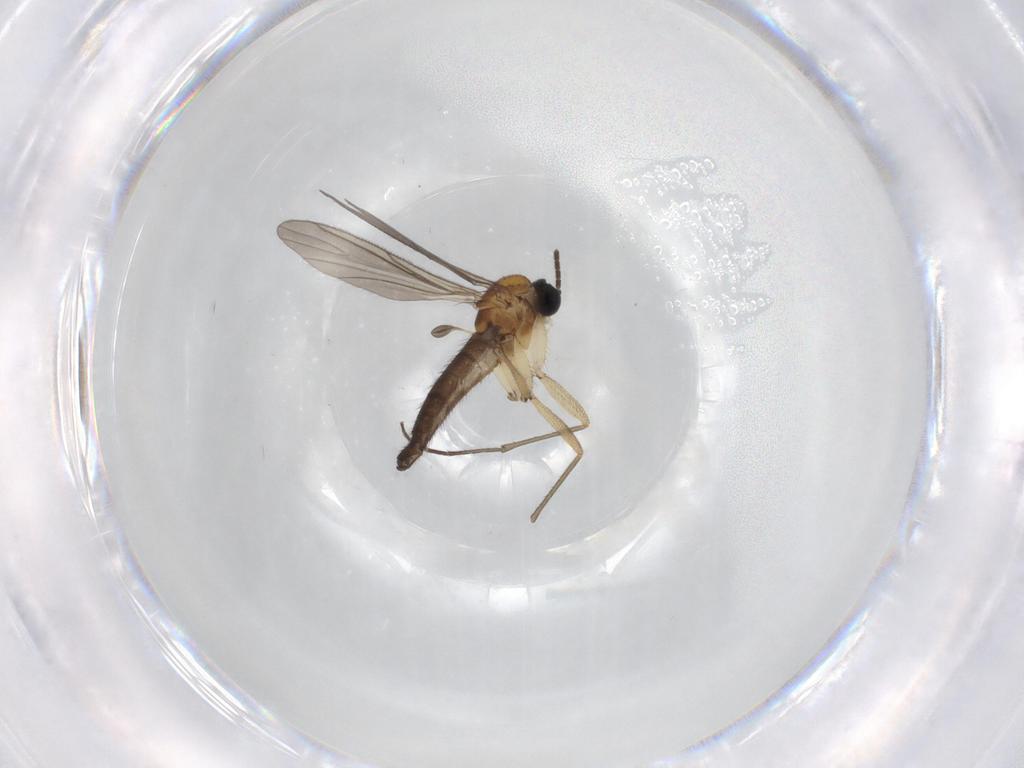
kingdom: Animalia
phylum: Arthropoda
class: Insecta
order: Diptera
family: Limoniidae
